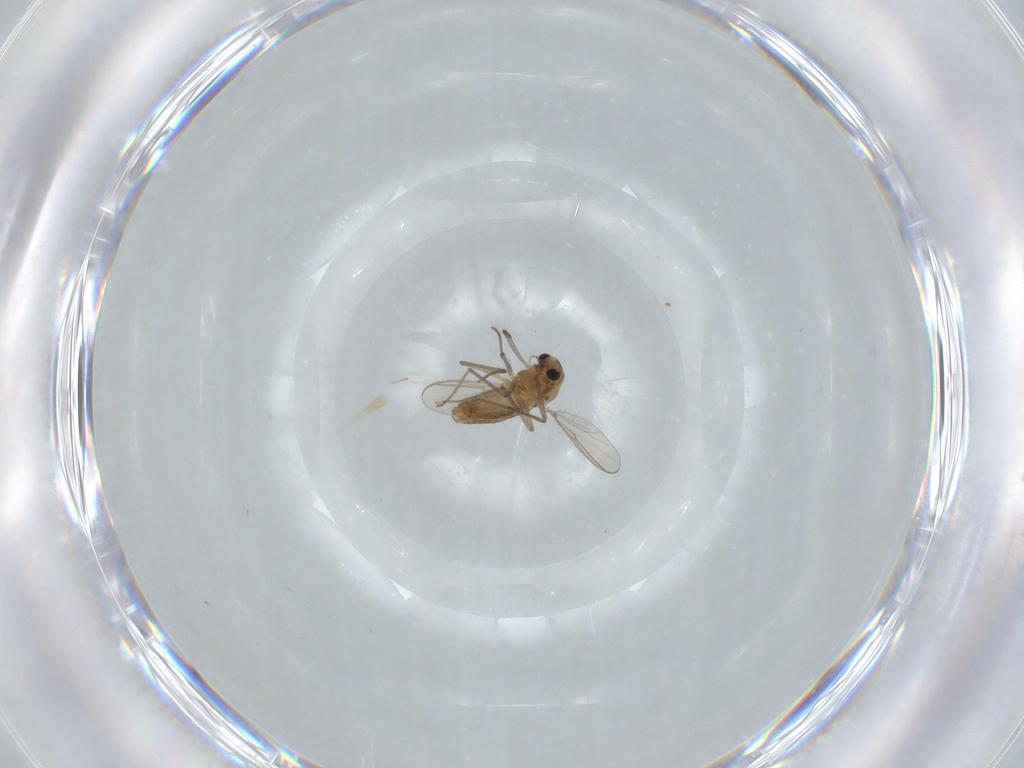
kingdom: Animalia
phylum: Arthropoda
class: Insecta
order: Diptera
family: Chironomidae
